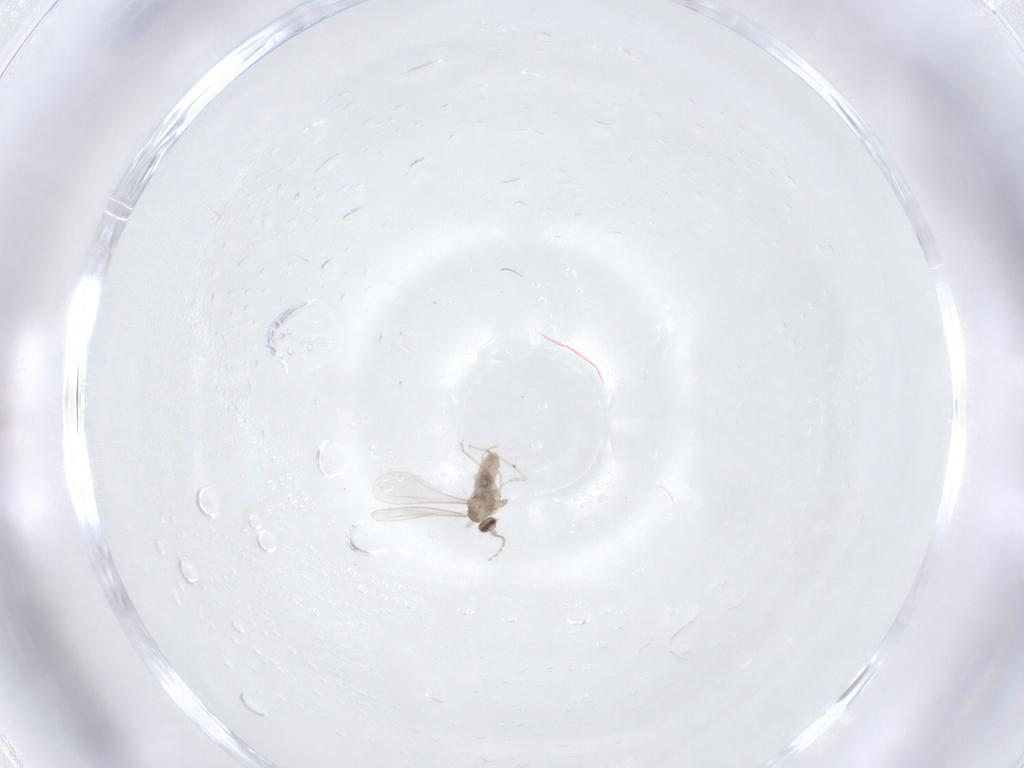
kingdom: Animalia
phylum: Arthropoda
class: Insecta
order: Diptera
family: Cecidomyiidae
